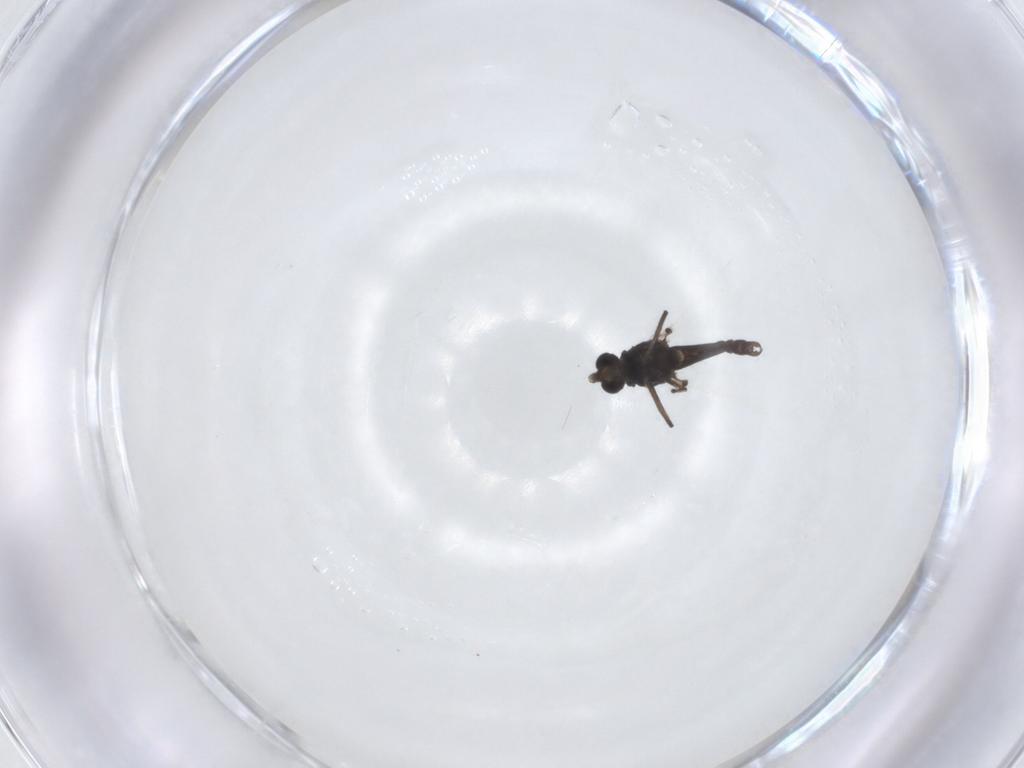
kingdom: Animalia
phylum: Arthropoda
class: Insecta
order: Diptera
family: Chironomidae
